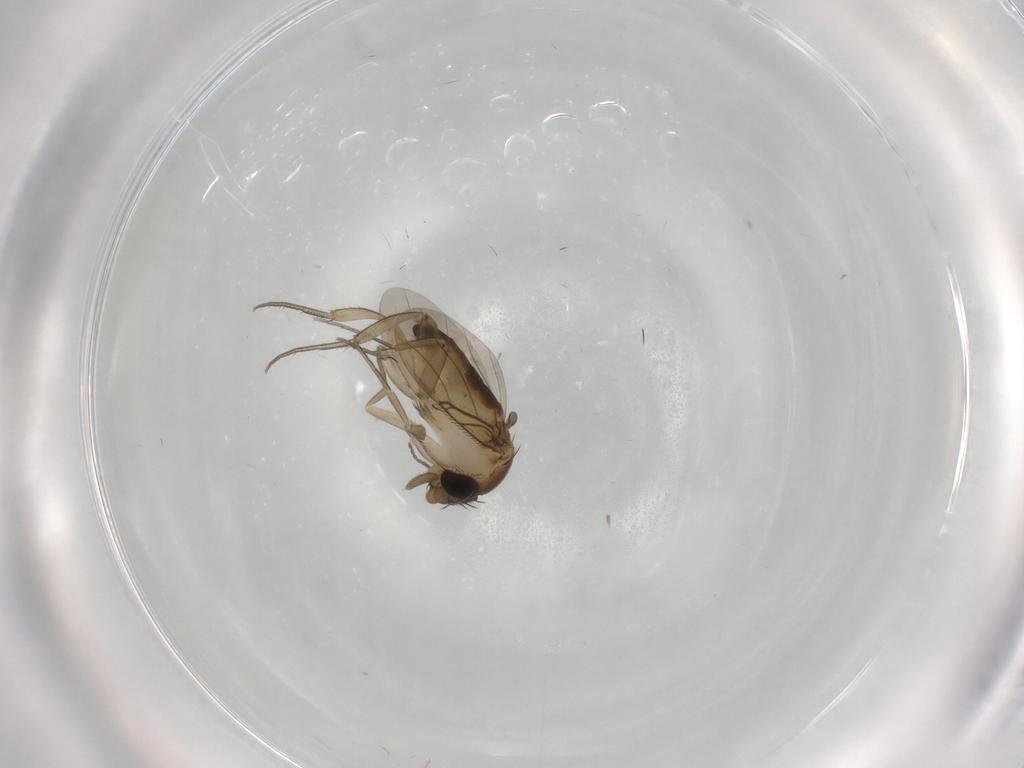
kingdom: Animalia
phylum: Arthropoda
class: Insecta
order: Diptera
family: Phoridae
